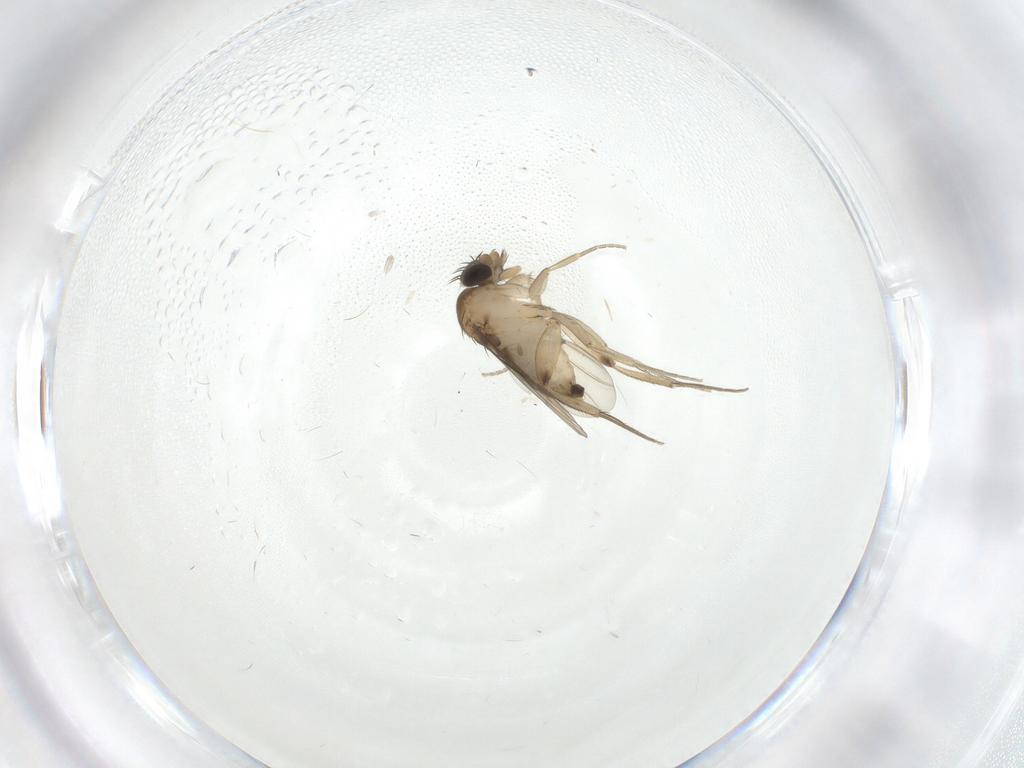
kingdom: Animalia
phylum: Arthropoda
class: Insecta
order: Diptera
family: Phoridae
